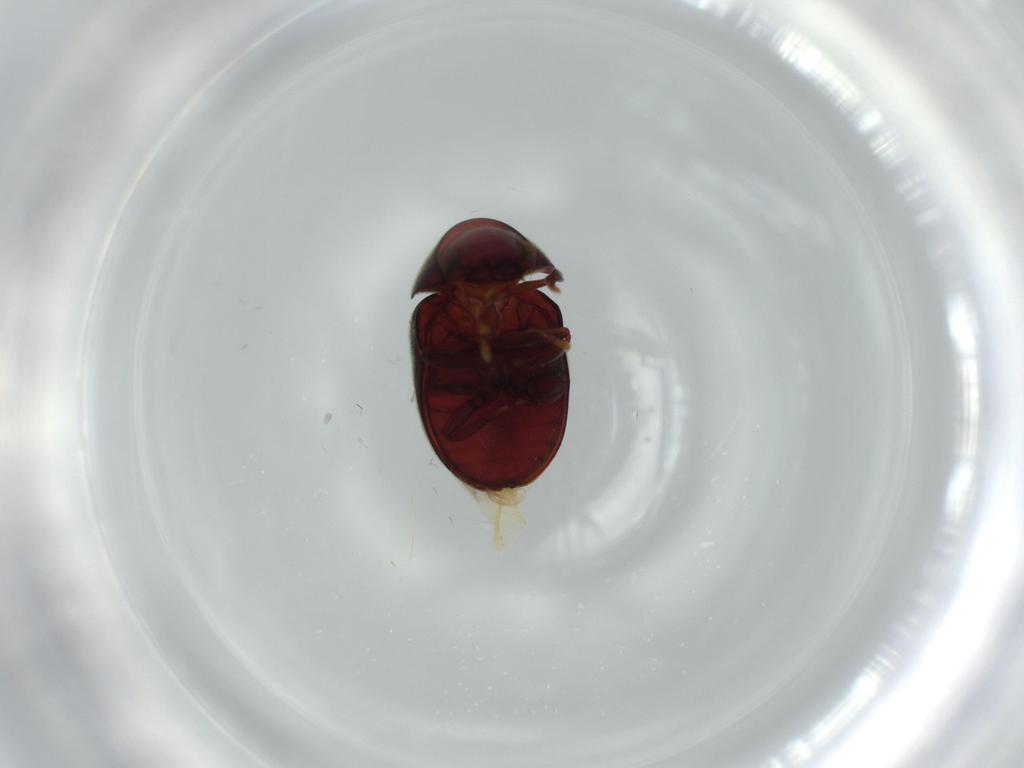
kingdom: Animalia
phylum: Arthropoda
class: Insecta
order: Coleoptera
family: Ptinidae
